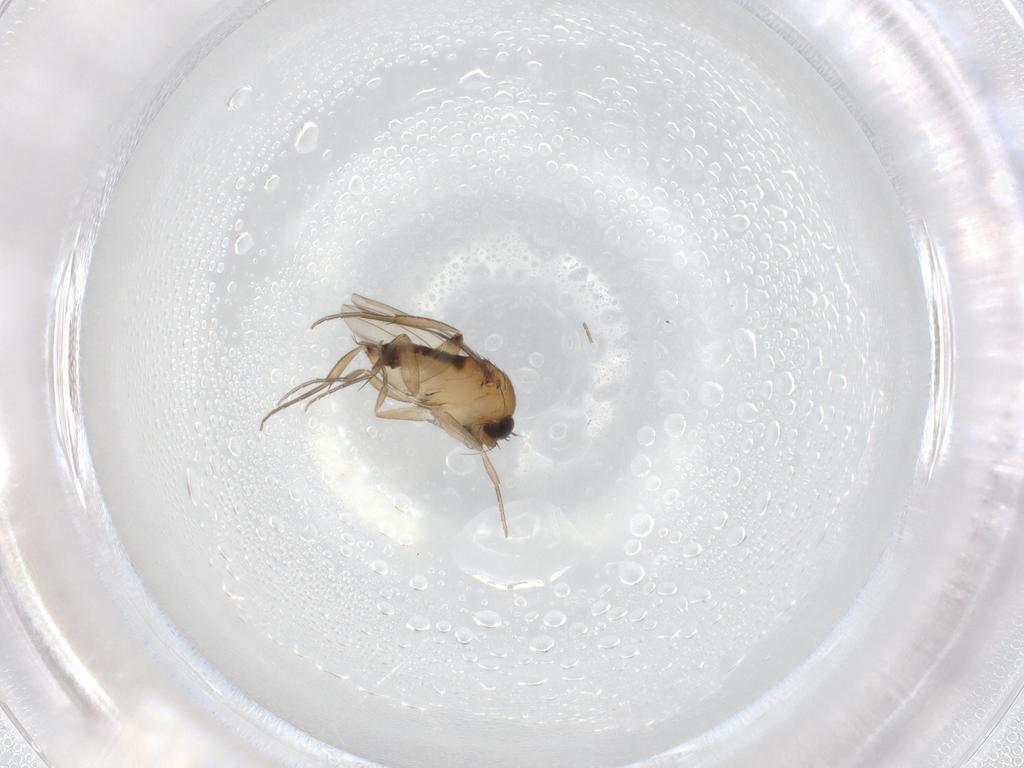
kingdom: Animalia
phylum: Arthropoda
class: Insecta
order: Diptera
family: Phoridae
